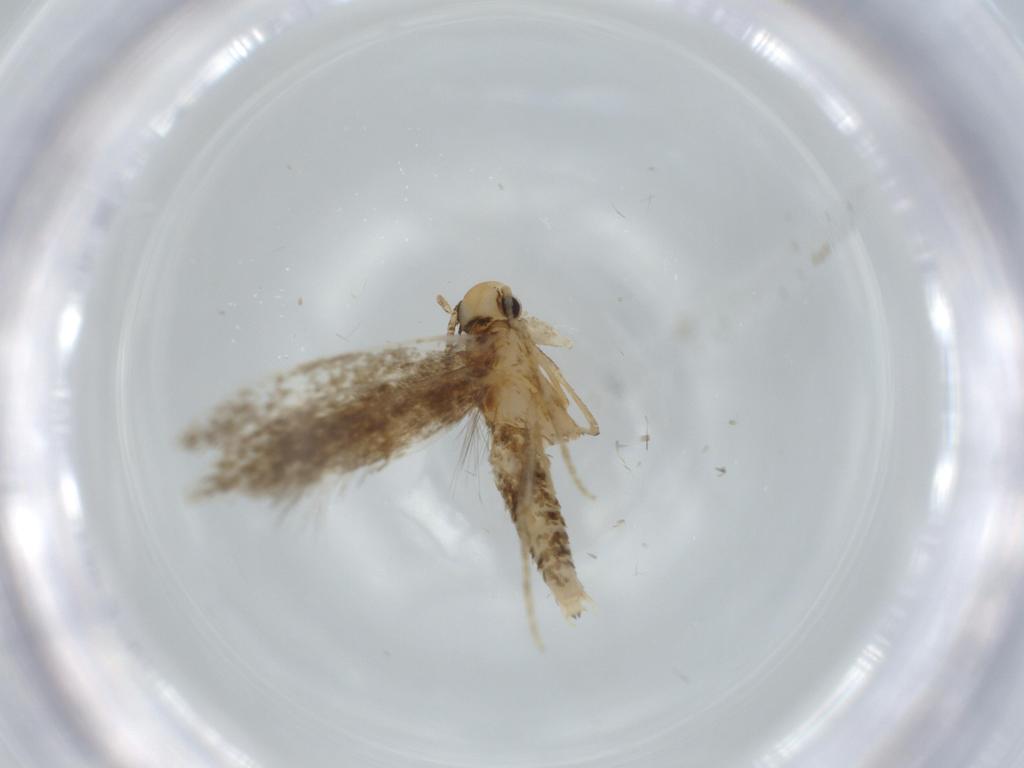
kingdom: Animalia
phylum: Arthropoda
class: Insecta
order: Lepidoptera
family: Tineidae
